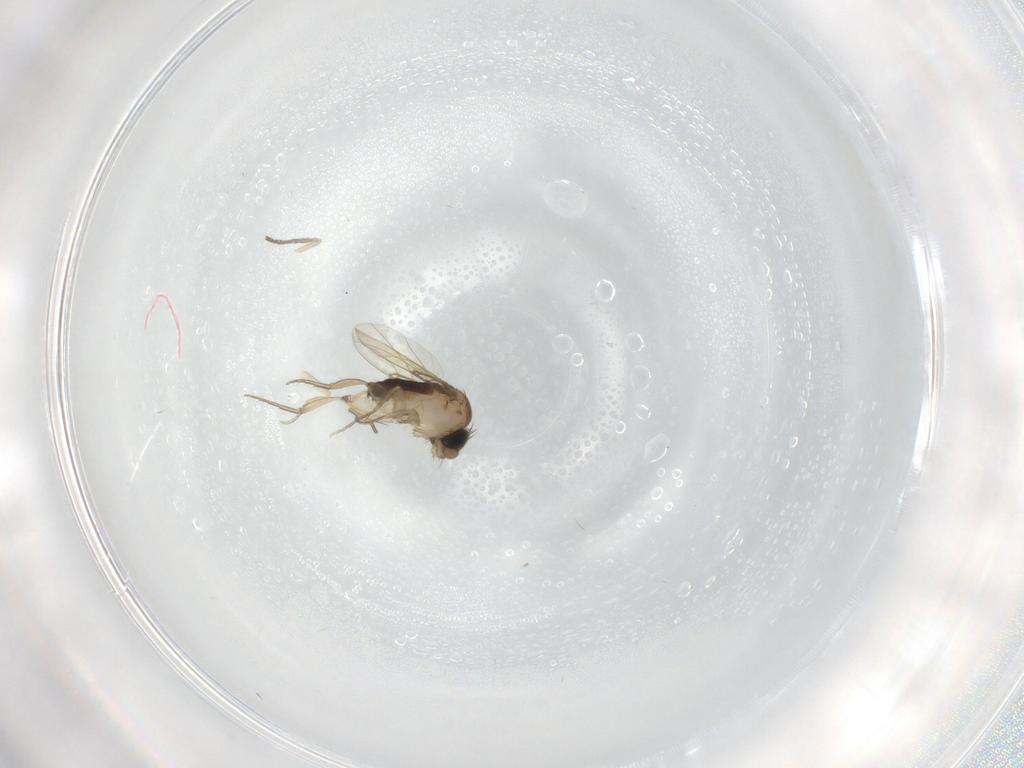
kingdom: Animalia
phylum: Arthropoda
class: Insecta
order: Diptera
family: Phoridae
